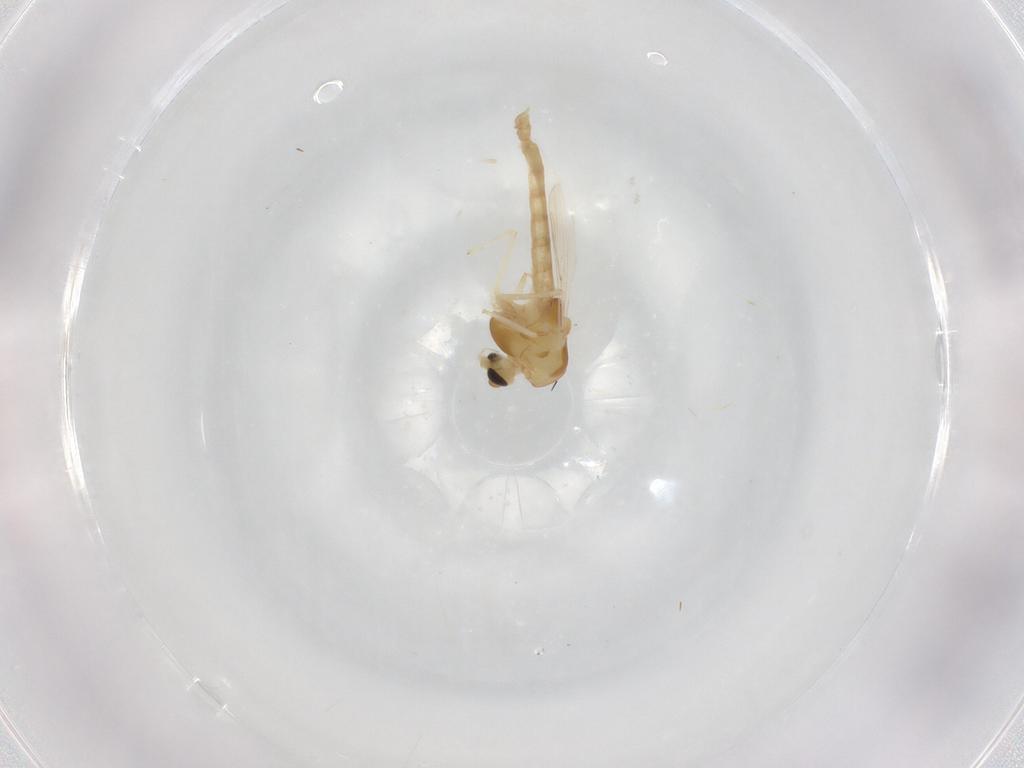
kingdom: Animalia
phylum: Arthropoda
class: Insecta
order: Diptera
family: Chironomidae
